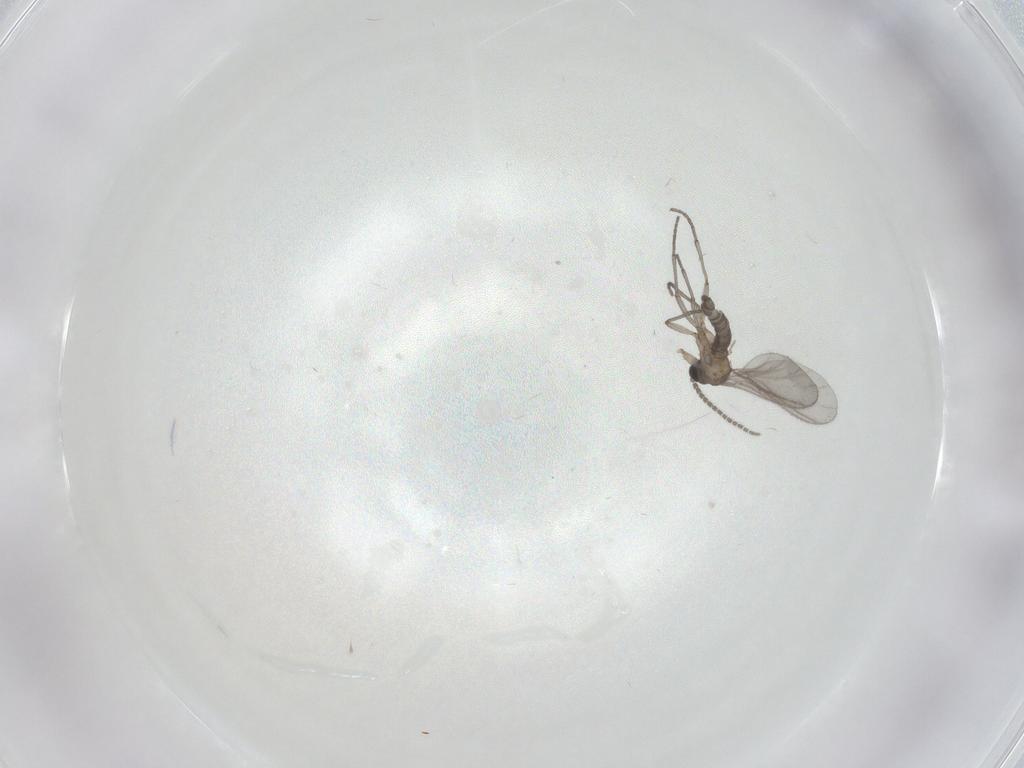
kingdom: Animalia
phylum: Arthropoda
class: Insecta
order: Diptera
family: Sciaridae
